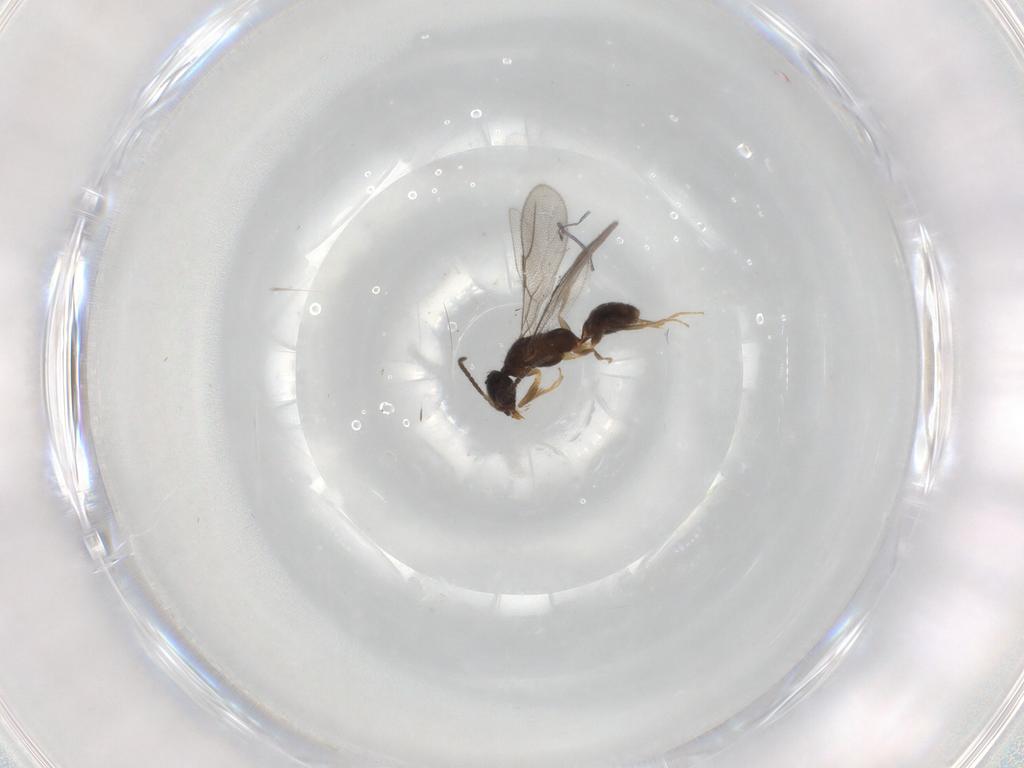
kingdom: Animalia
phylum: Arthropoda
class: Insecta
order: Hymenoptera
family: Bethylidae
